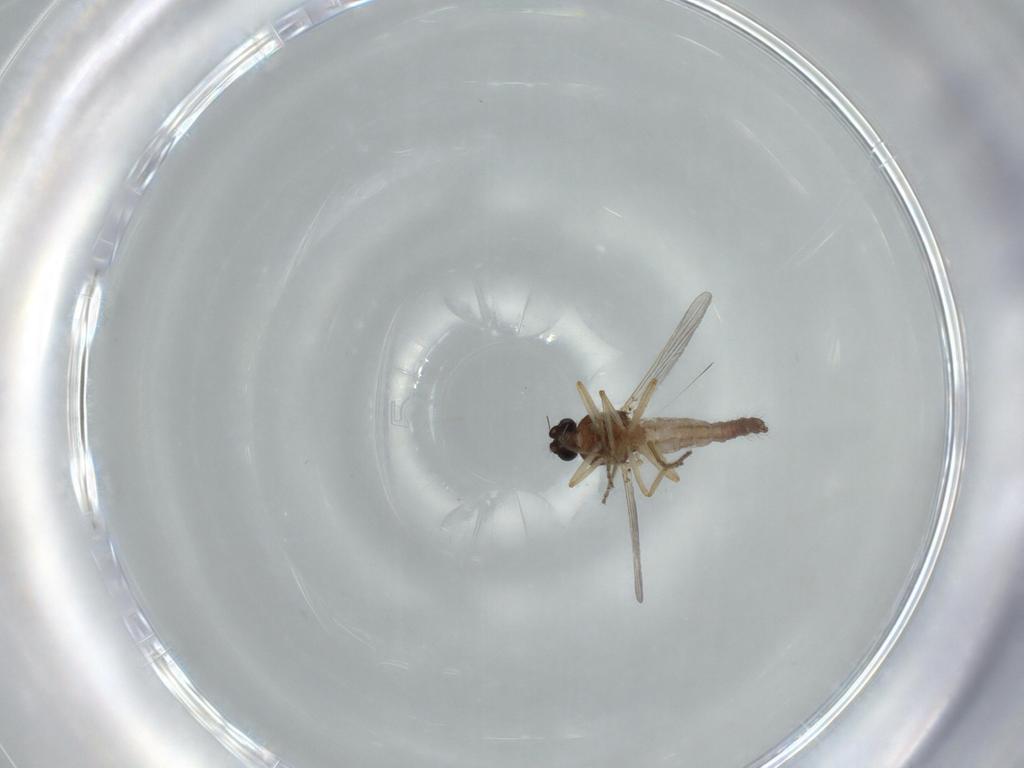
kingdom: Animalia
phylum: Arthropoda
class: Insecta
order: Diptera
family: Ceratopogonidae
